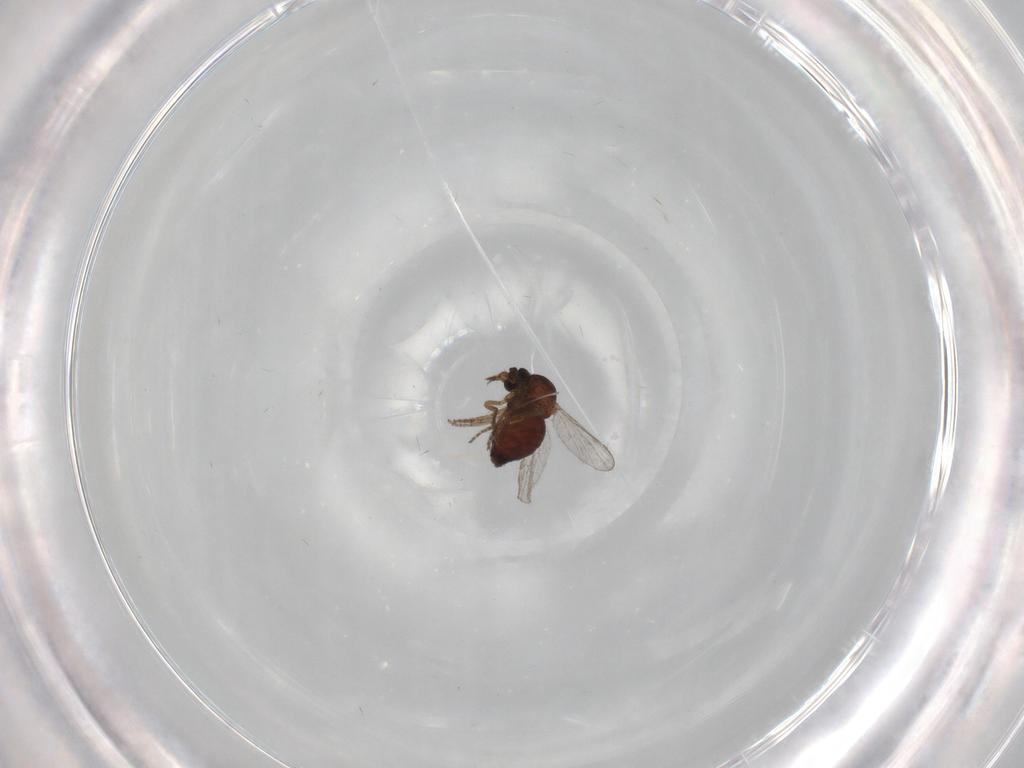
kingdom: Animalia
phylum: Arthropoda
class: Insecta
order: Diptera
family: Cecidomyiidae
